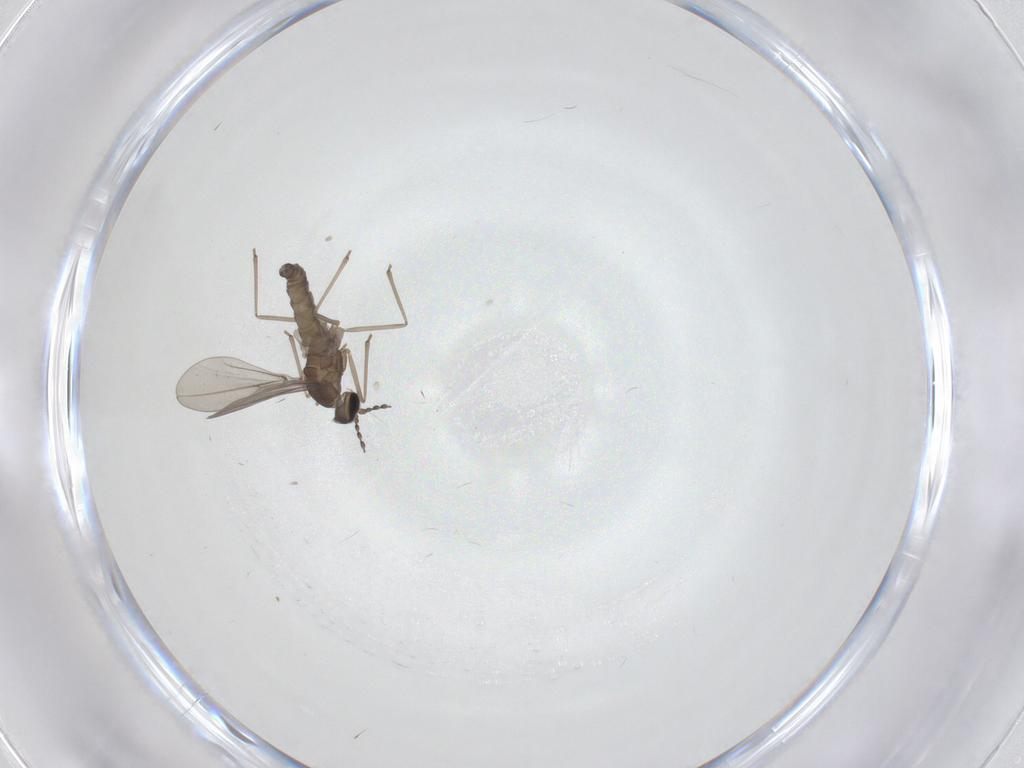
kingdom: Animalia
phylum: Arthropoda
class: Insecta
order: Diptera
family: Cecidomyiidae
